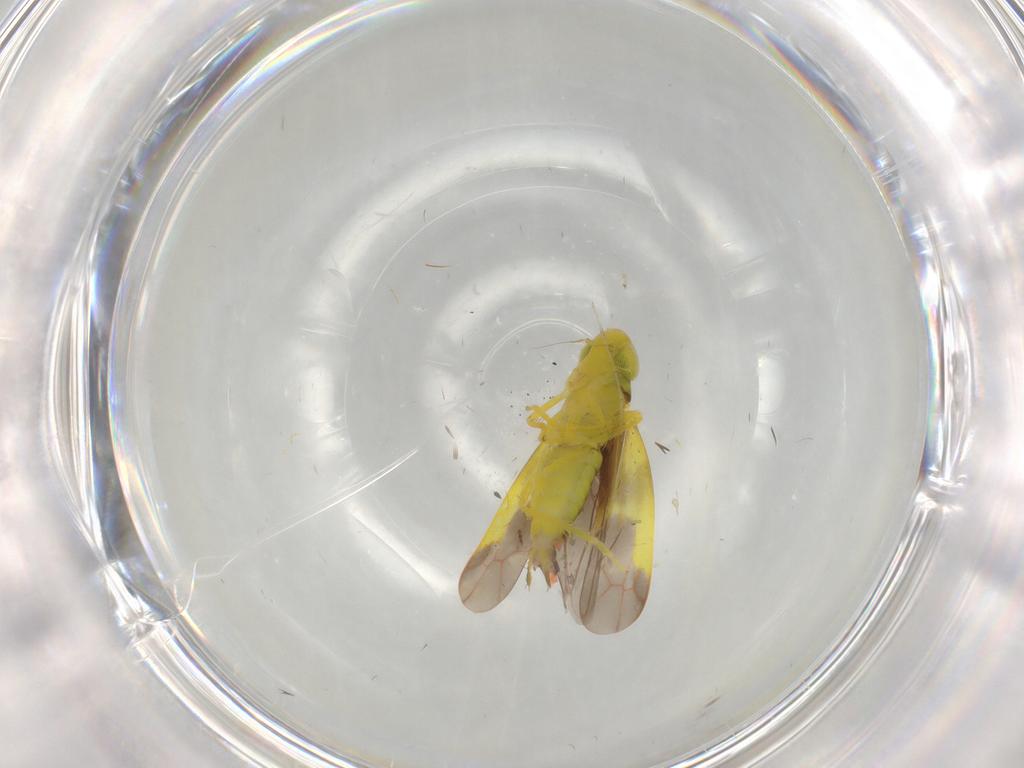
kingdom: Animalia
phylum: Arthropoda
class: Insecta
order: Hemiptera
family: Cicadellidae
